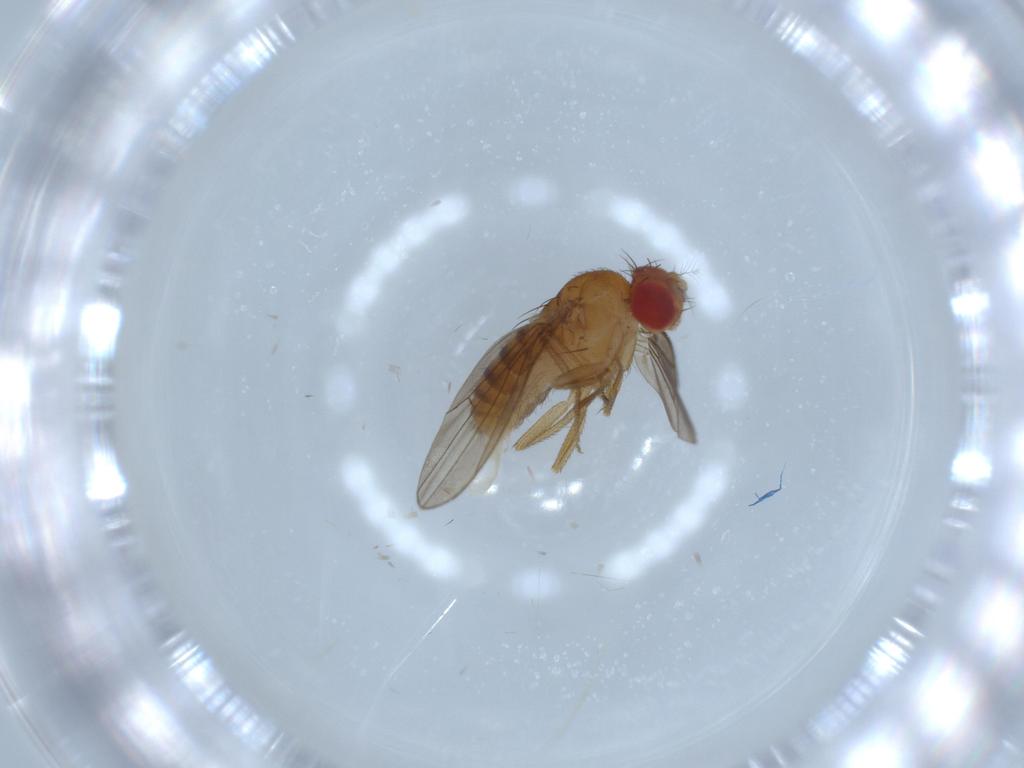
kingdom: Animalia
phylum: Arthropoda
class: Insecta
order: Diptera
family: Drosophilidae
